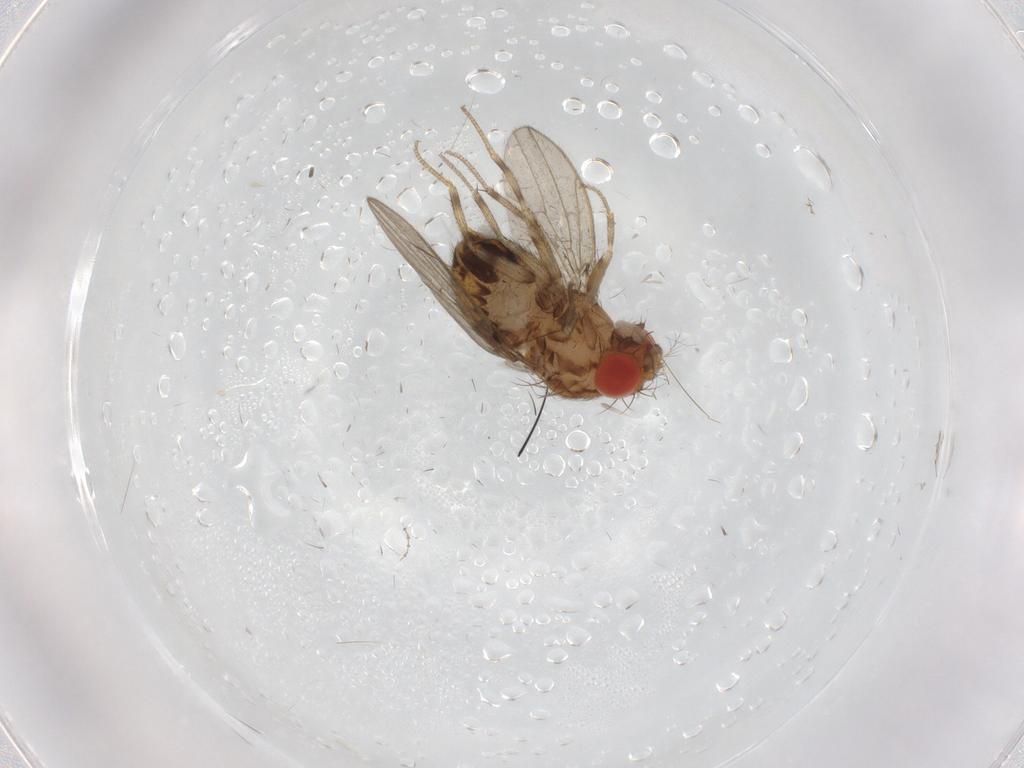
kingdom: Animalia
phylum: Arthropoda
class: Insecta
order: Diptera
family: Drosophilidae
